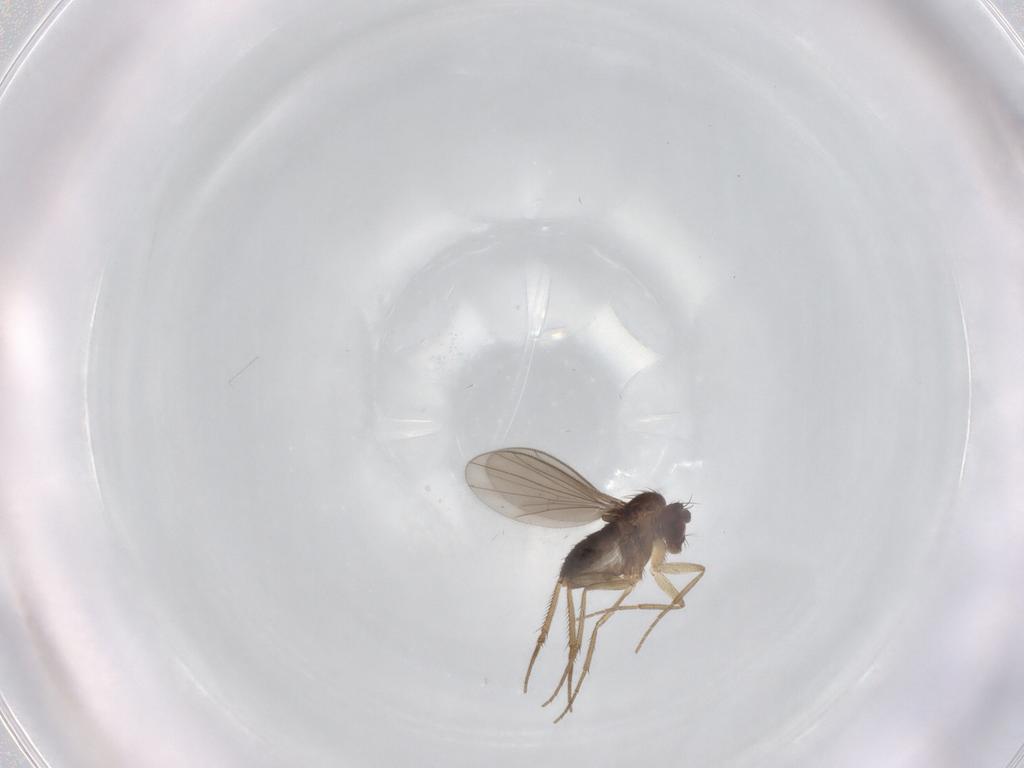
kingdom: Animalia
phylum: Arthropoda
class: Insecta
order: Diptera
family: Dolichopodidae
